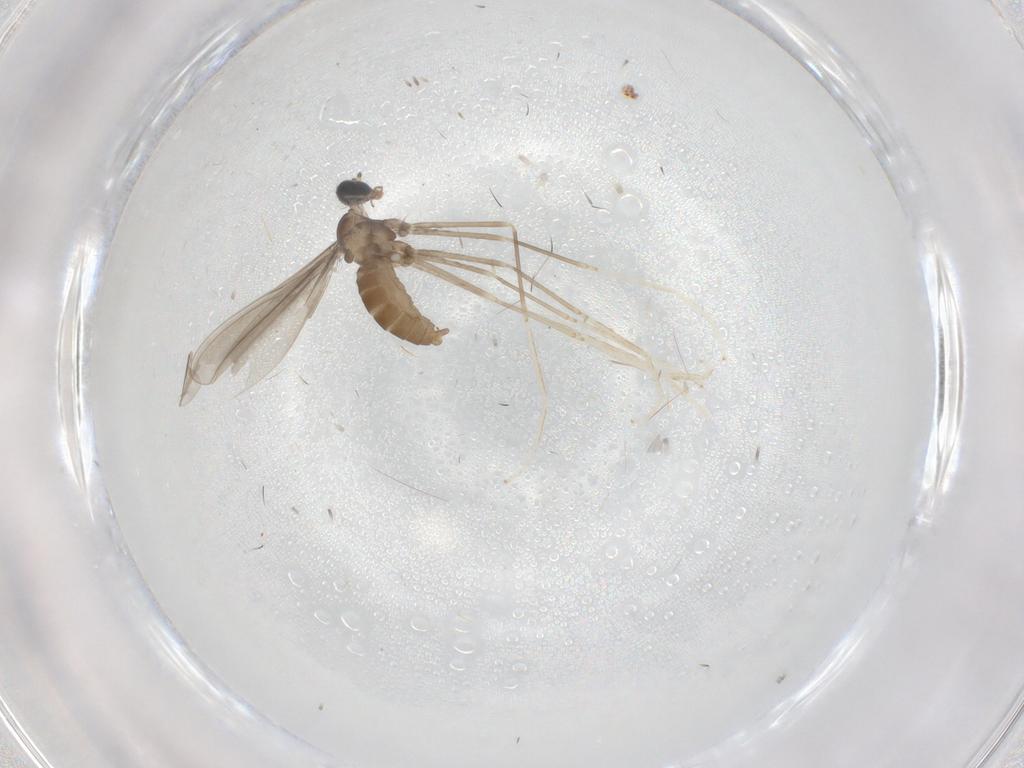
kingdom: Animalia
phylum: Arthropoda
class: Insecta
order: Diptera
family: Cecidomyiidae
